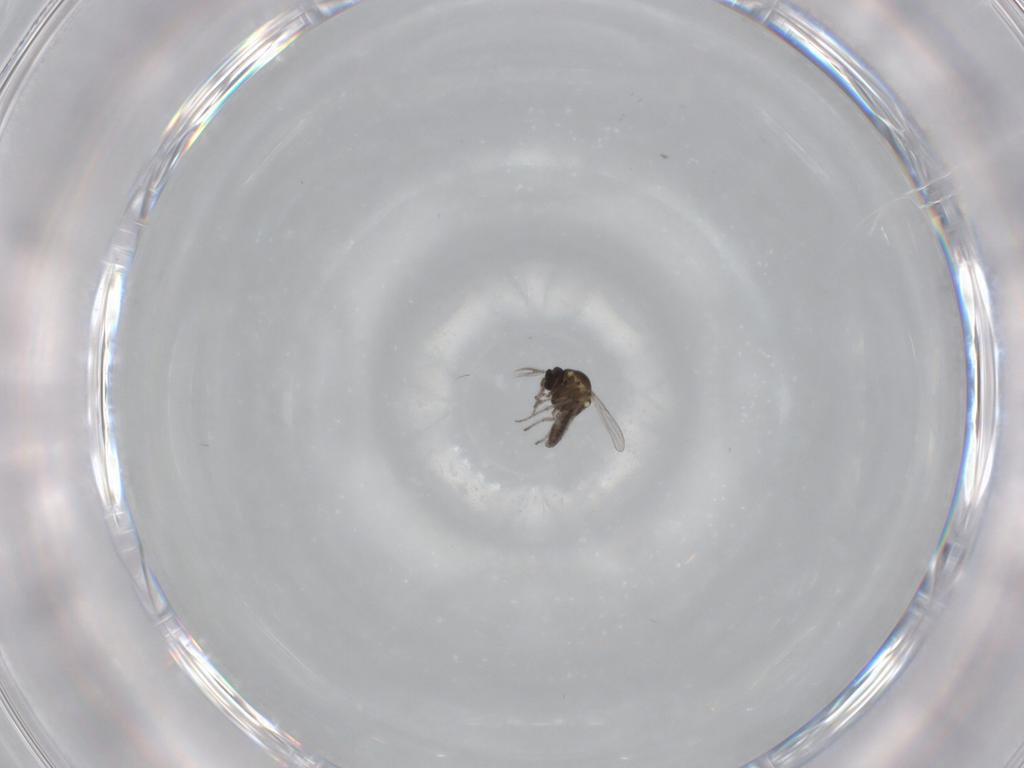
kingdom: Animalia
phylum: Arthropoda
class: Insecta
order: Diptera
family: Ceratopogonidae
